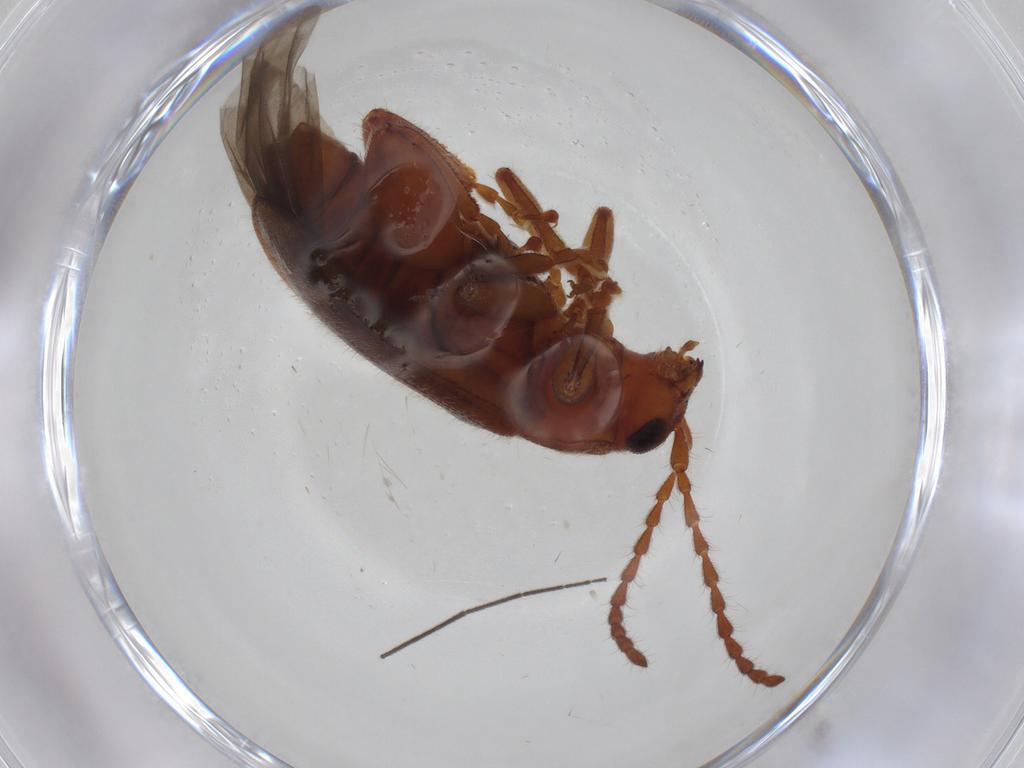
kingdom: Animalia
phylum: Arthropoda
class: Insecta
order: Coleoptera
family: Chrysomelidae
